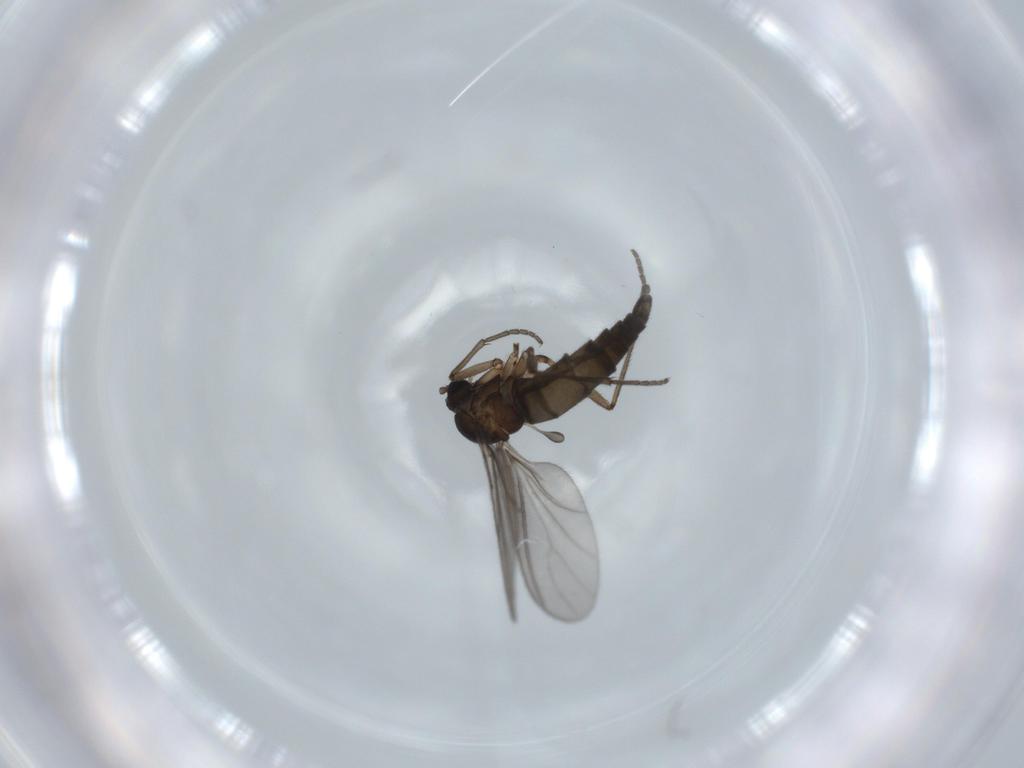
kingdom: Animalia
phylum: Arthropoda
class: Insecta
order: Diptera
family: Sciaridae
